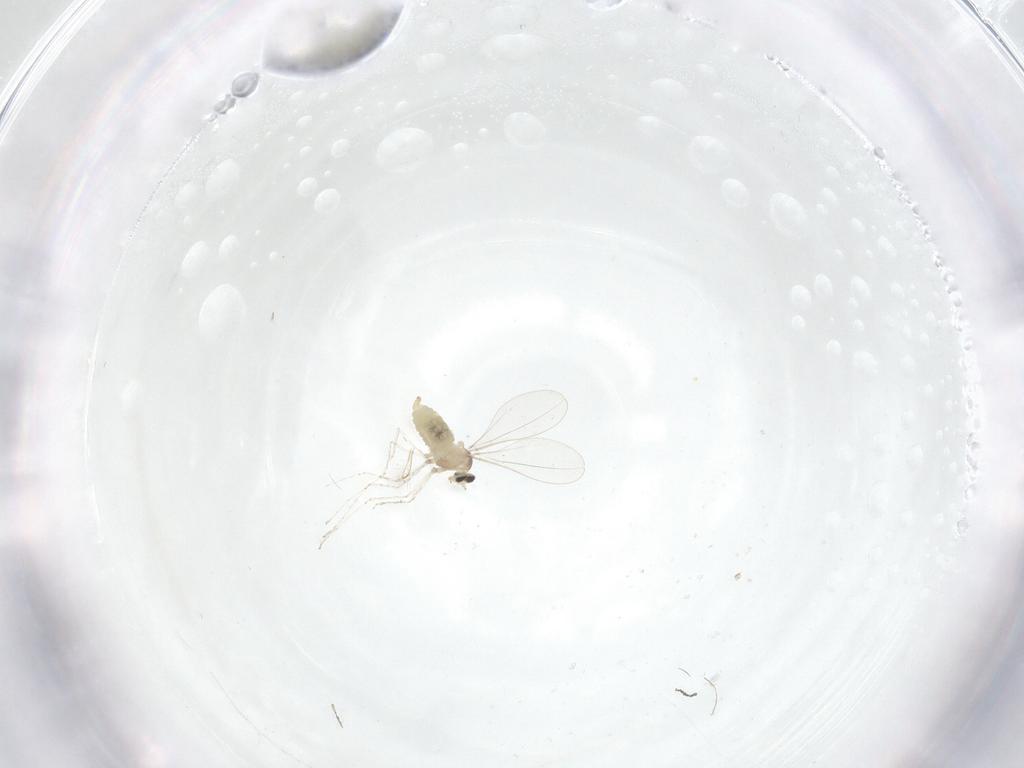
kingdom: Animalia
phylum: Arthropoda
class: Insecta
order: Diptera
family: Cecidomyiidae
